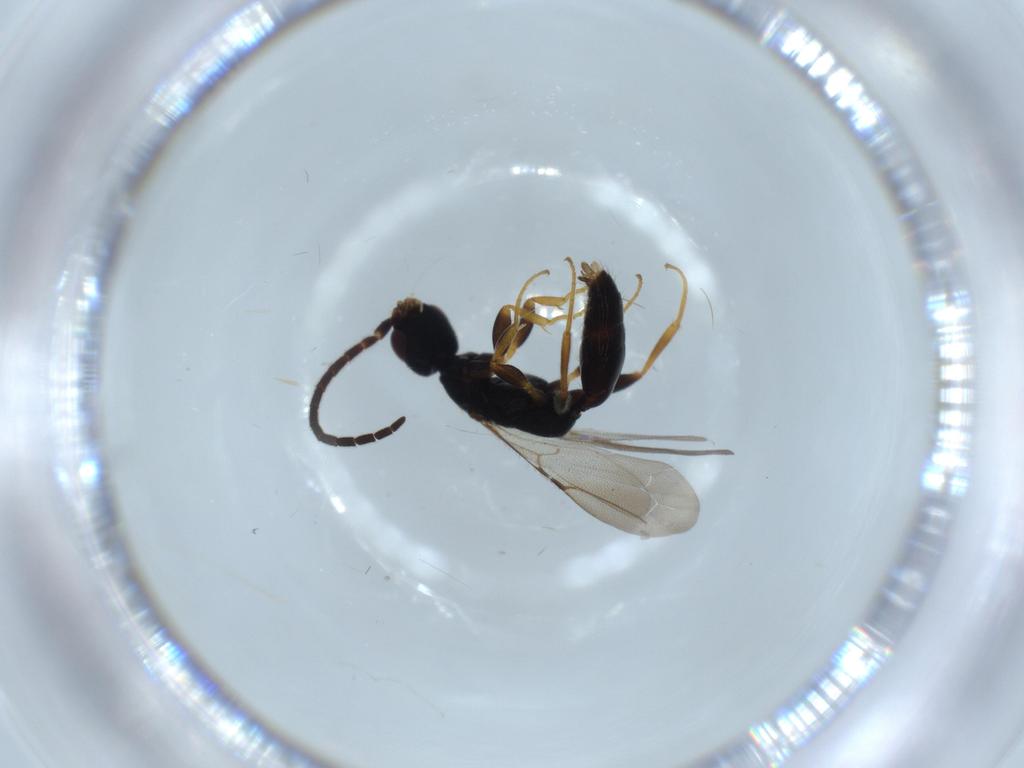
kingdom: Animalia
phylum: Arthropoda
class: Insecta
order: Hymenoptera
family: Bethylidae
